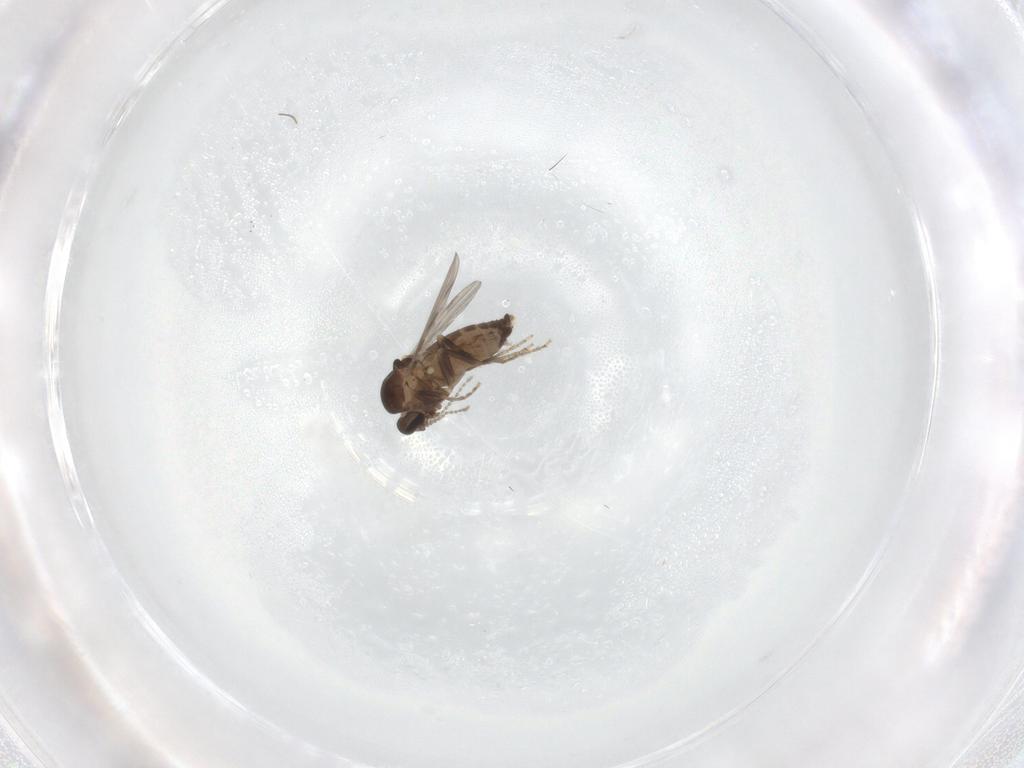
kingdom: Animalia
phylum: Arthropoda
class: Insecta
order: Diptera
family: Ceratopogonidae
